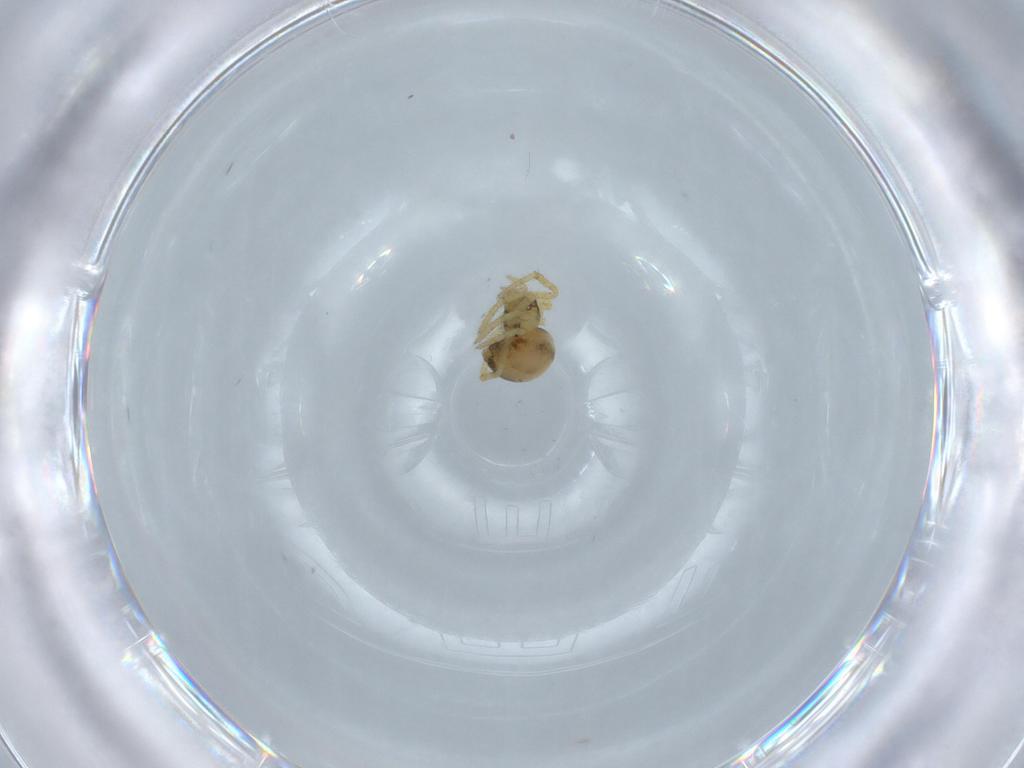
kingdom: Animalia
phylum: Arthropoda
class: Arachnida
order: Araneae
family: Theridiidae
